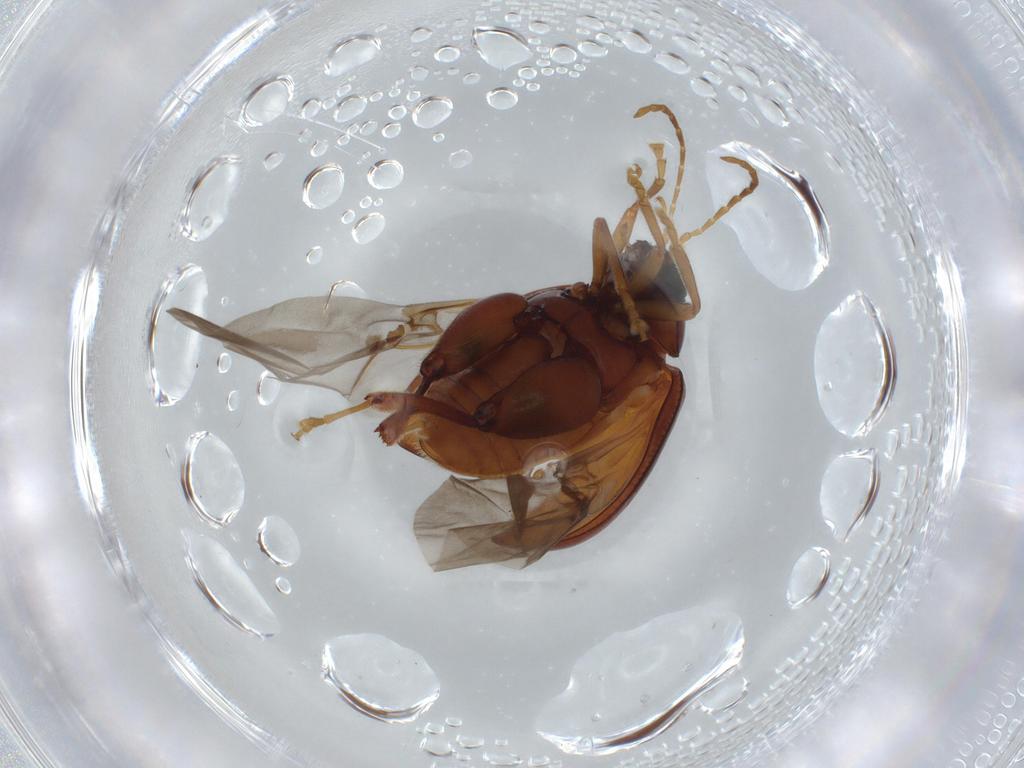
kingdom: Animalia
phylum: Arthropoda
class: Insecta
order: Coleoptera
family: Chrysomelidae
